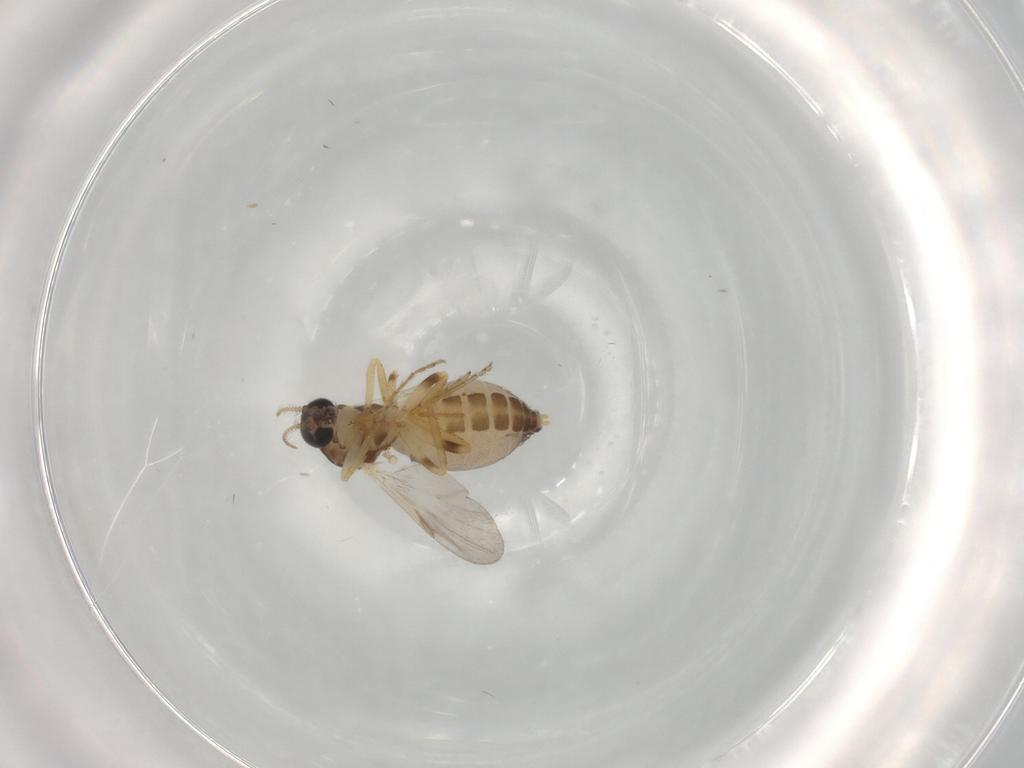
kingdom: Animalia
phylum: Arthropoda
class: Insecta
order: Diptera
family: Ceratopogonidae
